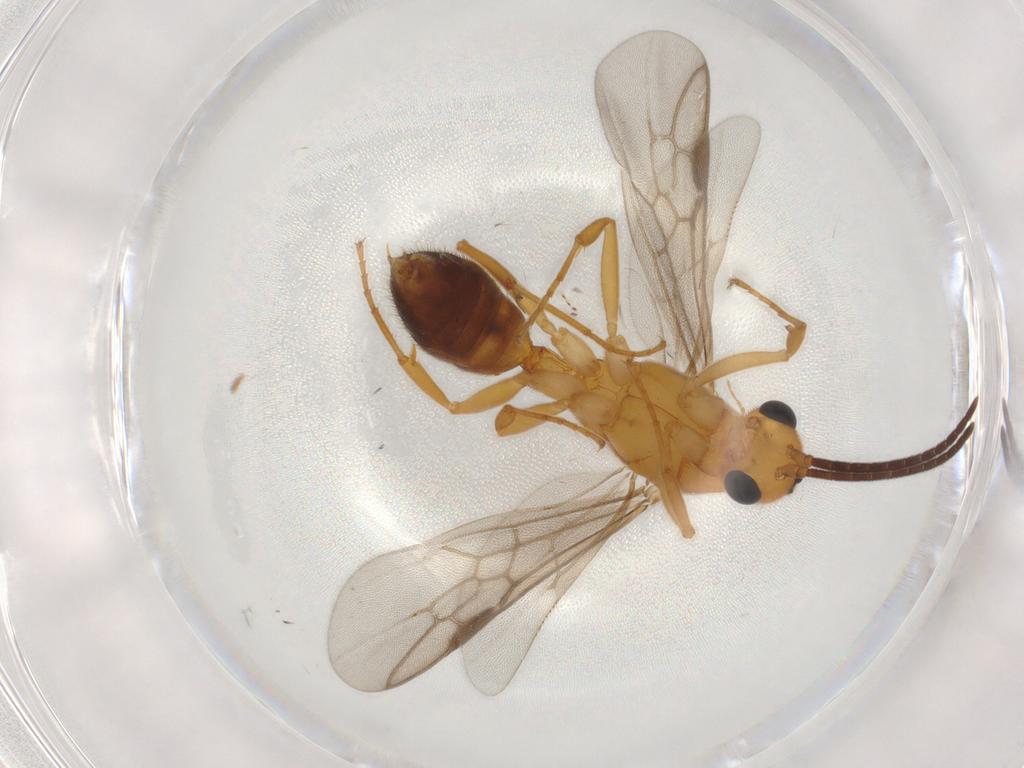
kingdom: Animalia
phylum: Arthropoda
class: Insecta
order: Hymenoptera
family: Formicidae
